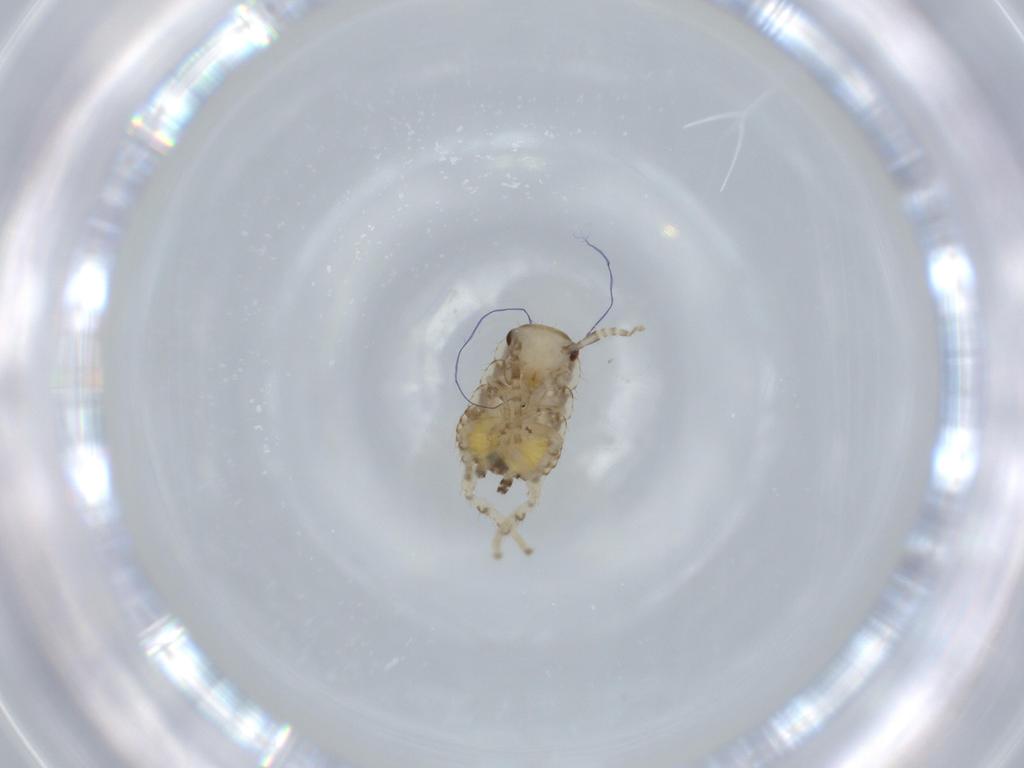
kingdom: Animalia
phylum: Arthropoda
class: Insecta
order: Blattodea
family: Ectobiidae
